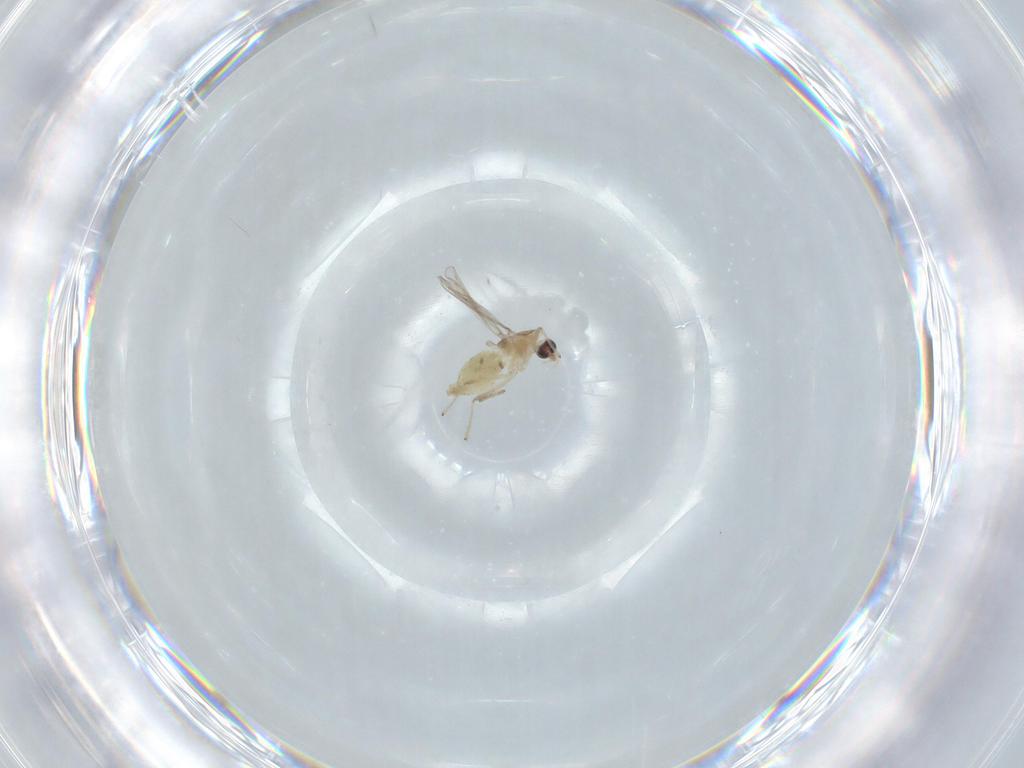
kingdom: Animalia
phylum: Arthropoda
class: Insecta
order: Diptera
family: Chironomidae
